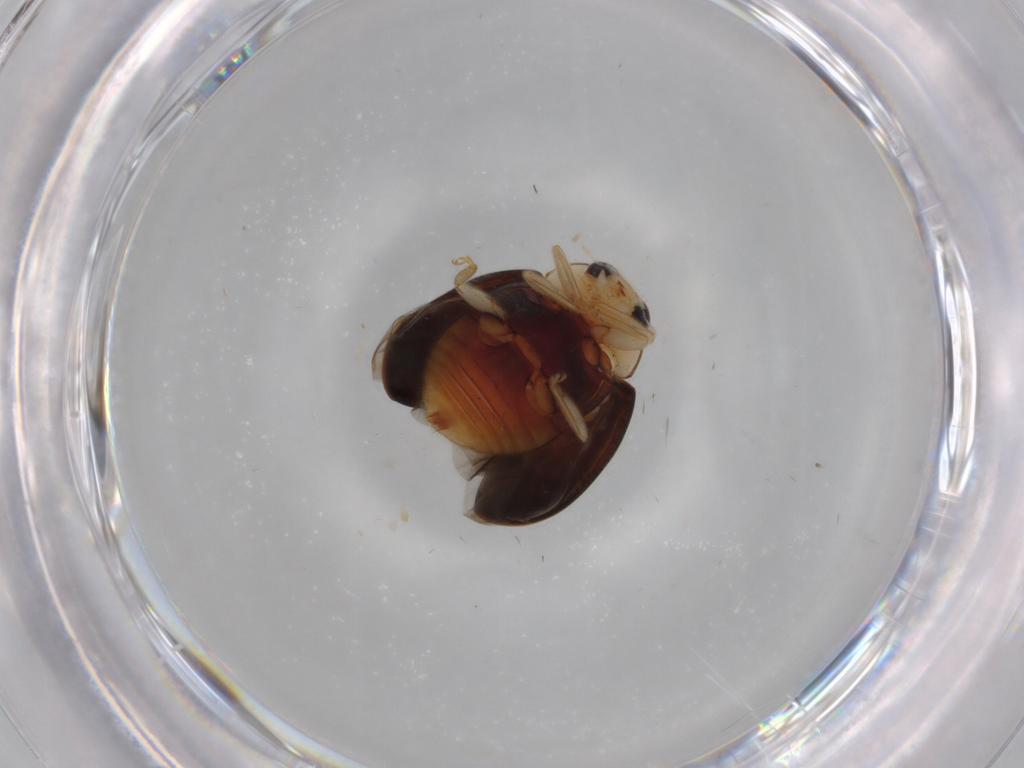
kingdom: Animalia
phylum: Arthropoda
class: Insecta
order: Coleoptera
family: Coccinellidae
